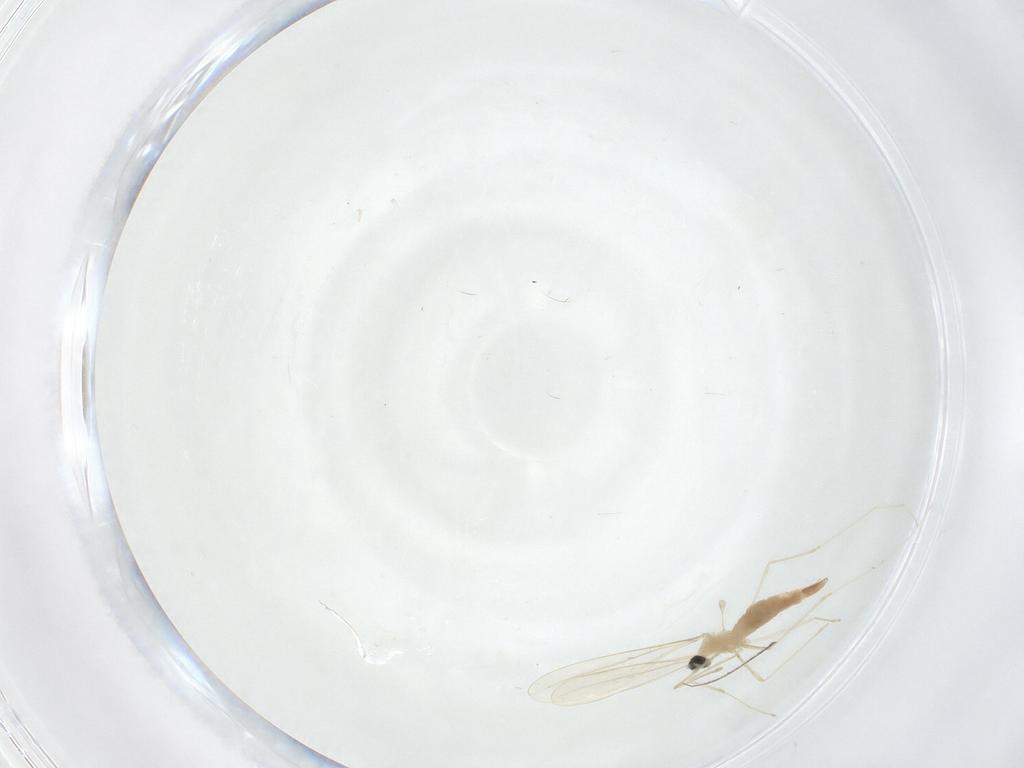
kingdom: Animalia
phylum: Arthropoda
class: Insecta
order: Diptera
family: Cecidomyiidae
